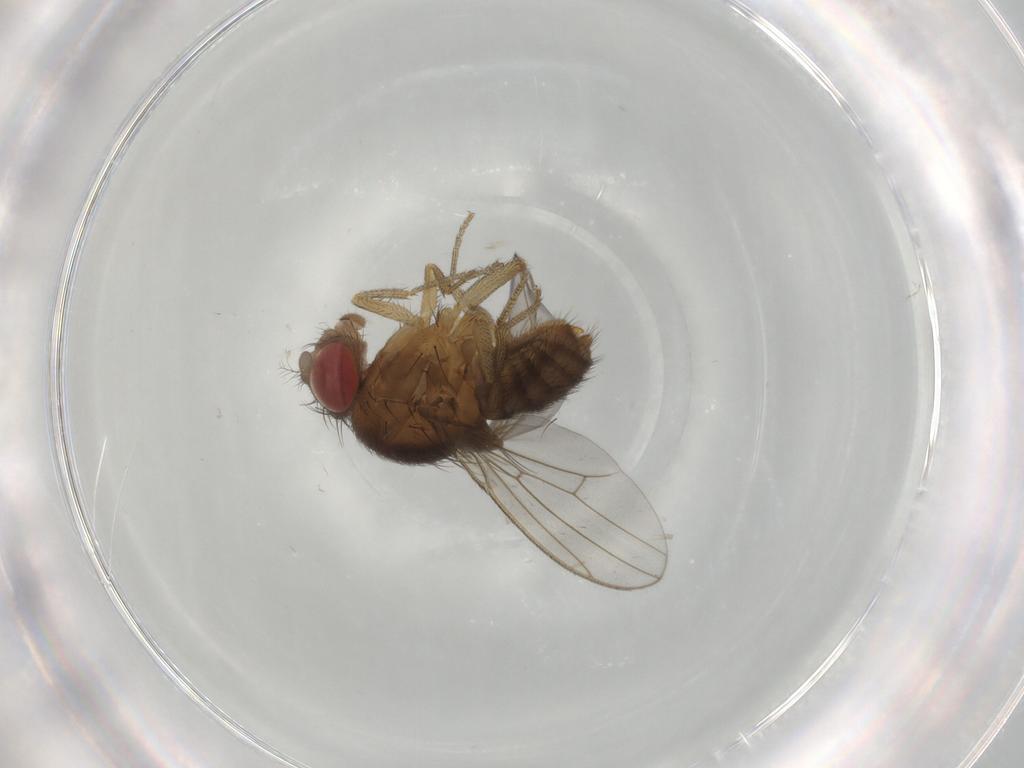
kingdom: Animalia
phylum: Arthropoda
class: Insecta
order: Diptera
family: Drosophilidae
